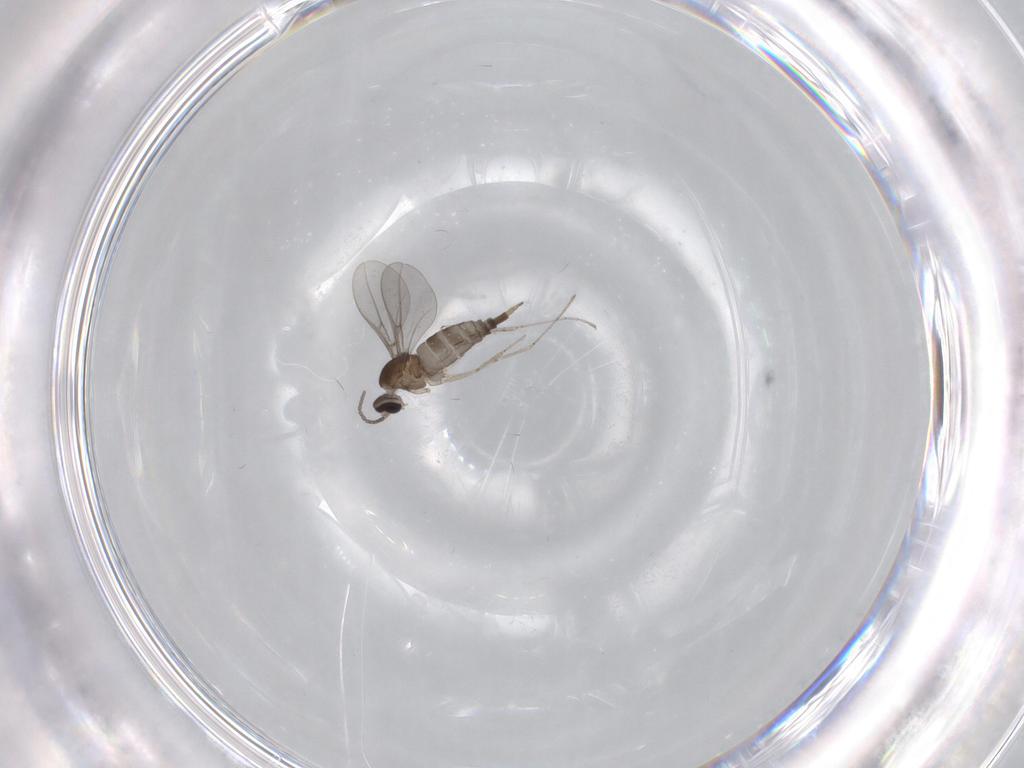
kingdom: Animalia
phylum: Arthropoda
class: Insecta
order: Diptera
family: Cecidomyiidae
